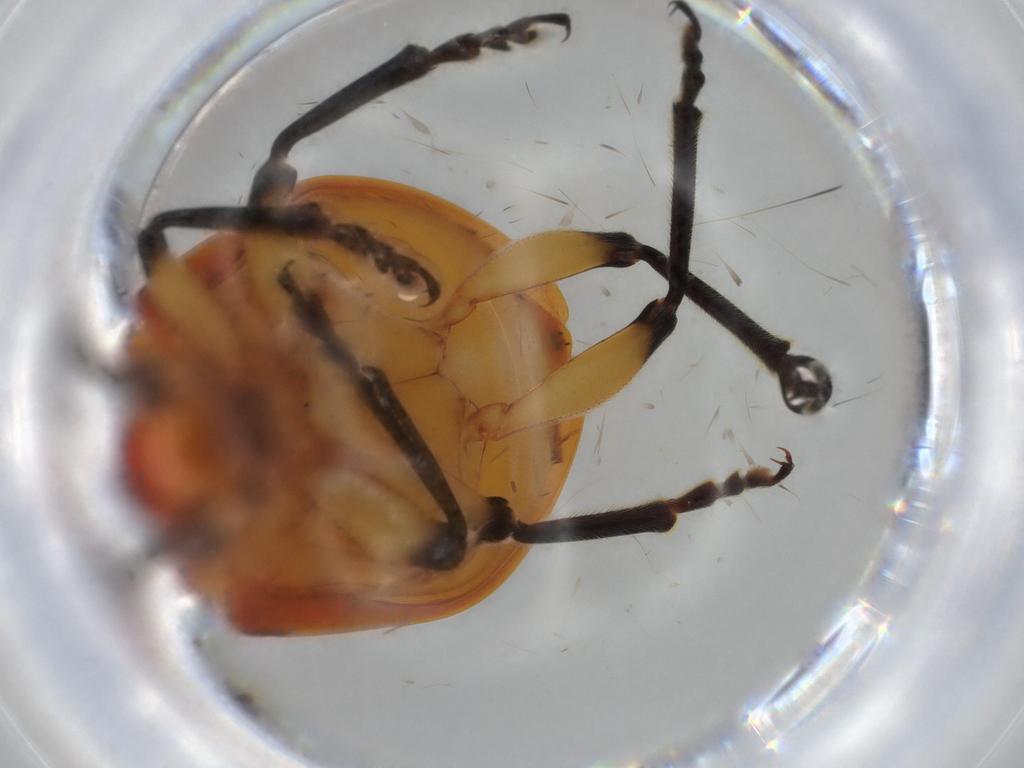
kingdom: Animalia
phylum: Arthropoda
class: Insecta
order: Coleoptera
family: Orsodacnidae
